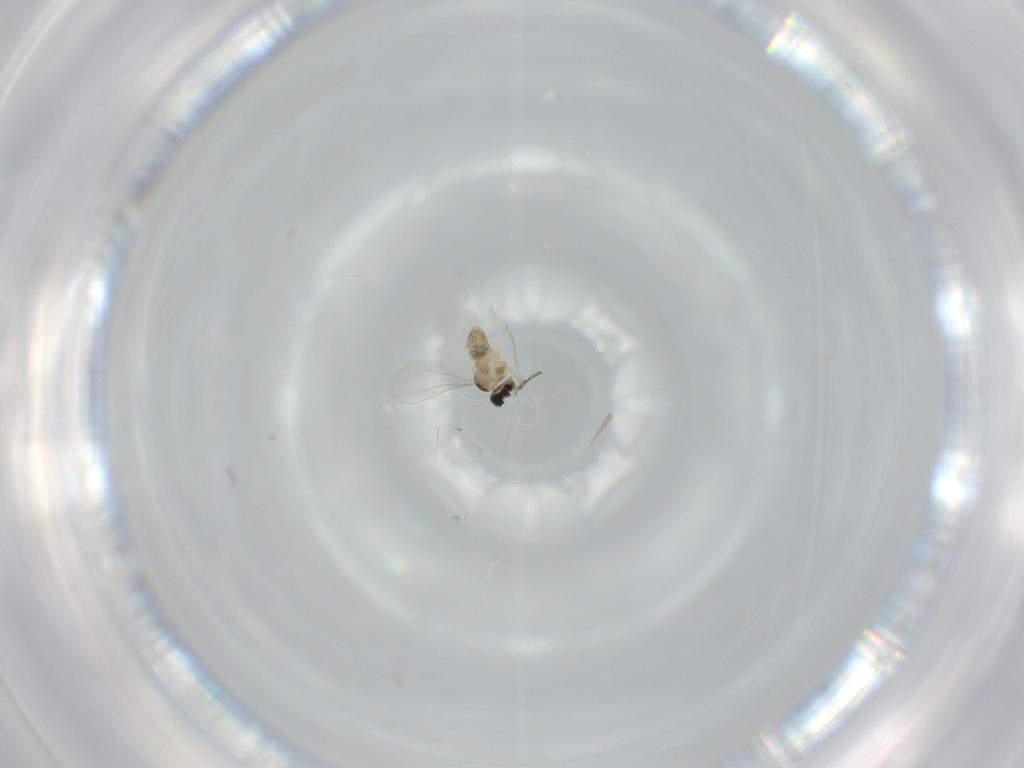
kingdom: Animalia
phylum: Arthropoda
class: Insecta
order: Diptera
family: Cecidomyiidae
